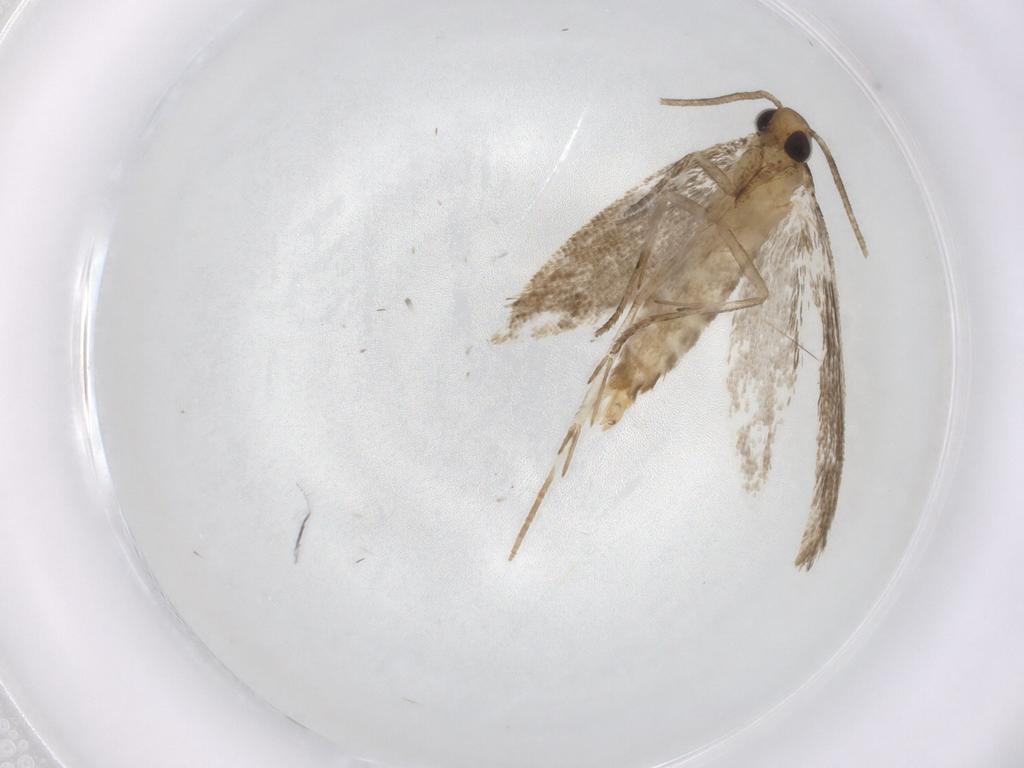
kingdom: Animalia
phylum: Arthropoda
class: Insecta
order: Lepidoptera
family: Gelechiidae
